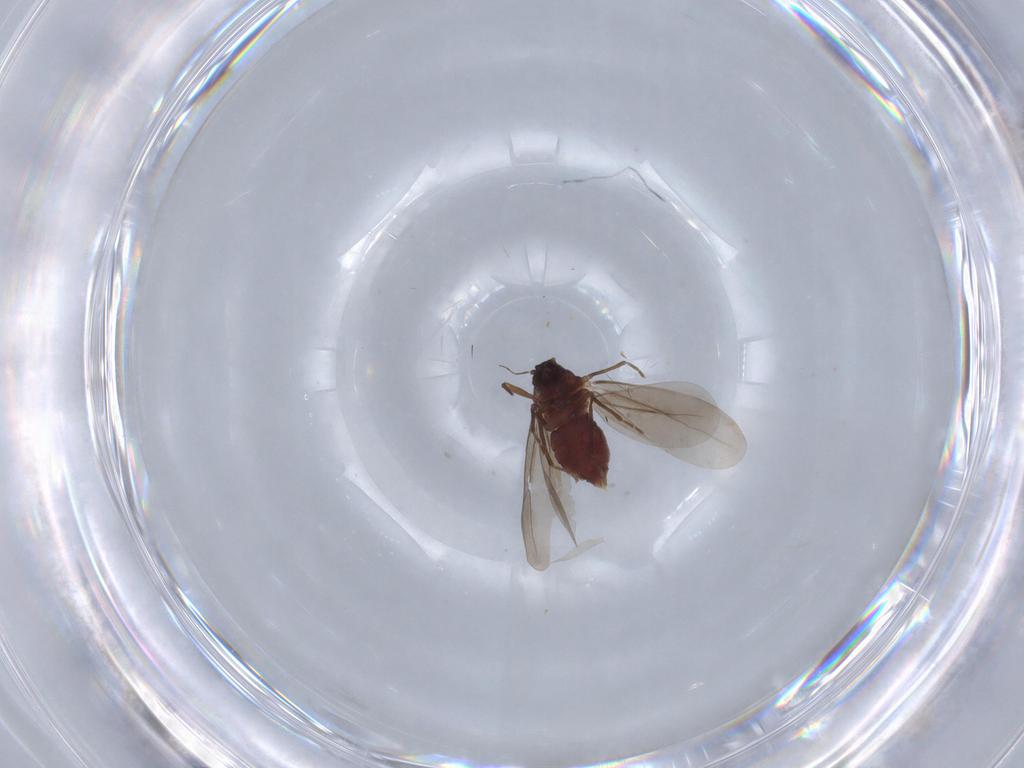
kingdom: Animalia
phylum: Arthropoda
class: Insecta
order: Hemiptera
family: Aleyrodidae
